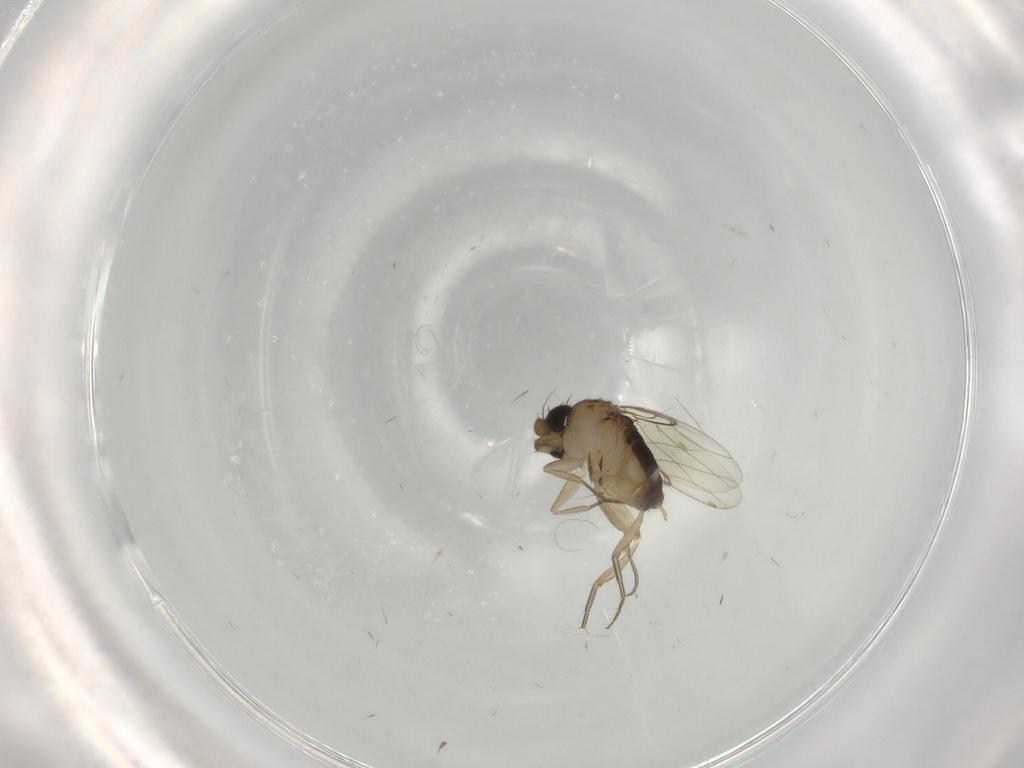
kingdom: Animalia
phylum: Arthropoda
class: Insecta
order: Diptera
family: Phoridae
